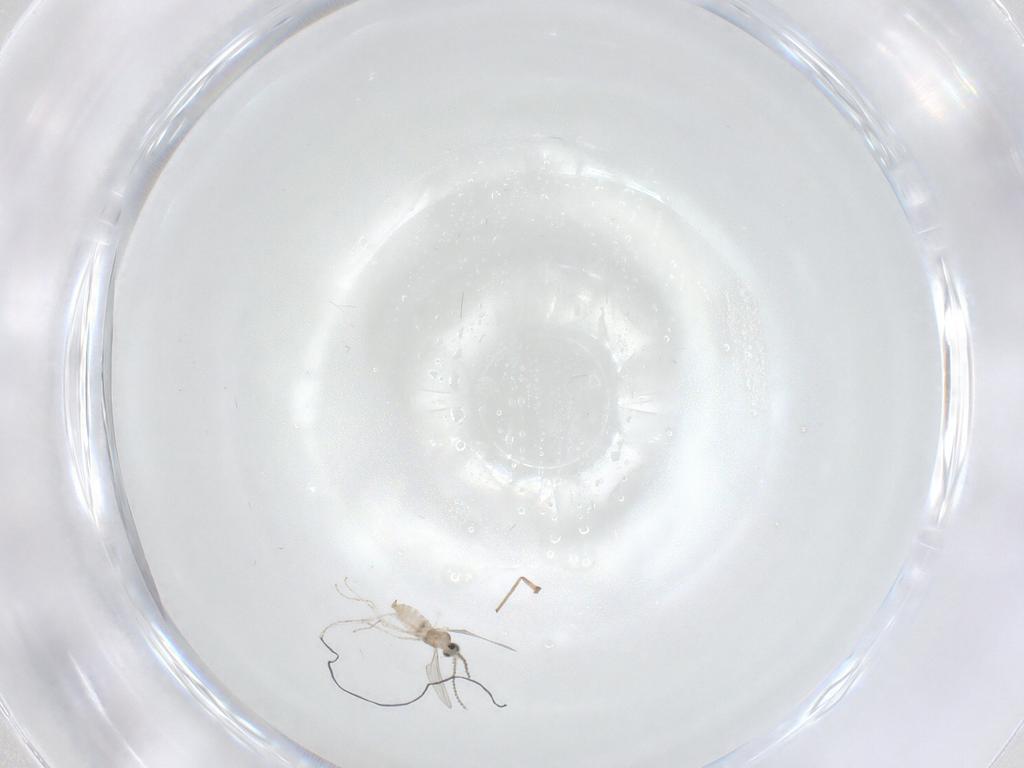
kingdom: Animalia
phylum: Arthropoda
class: Insecta
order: Diptera
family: Cecidomyiidae
